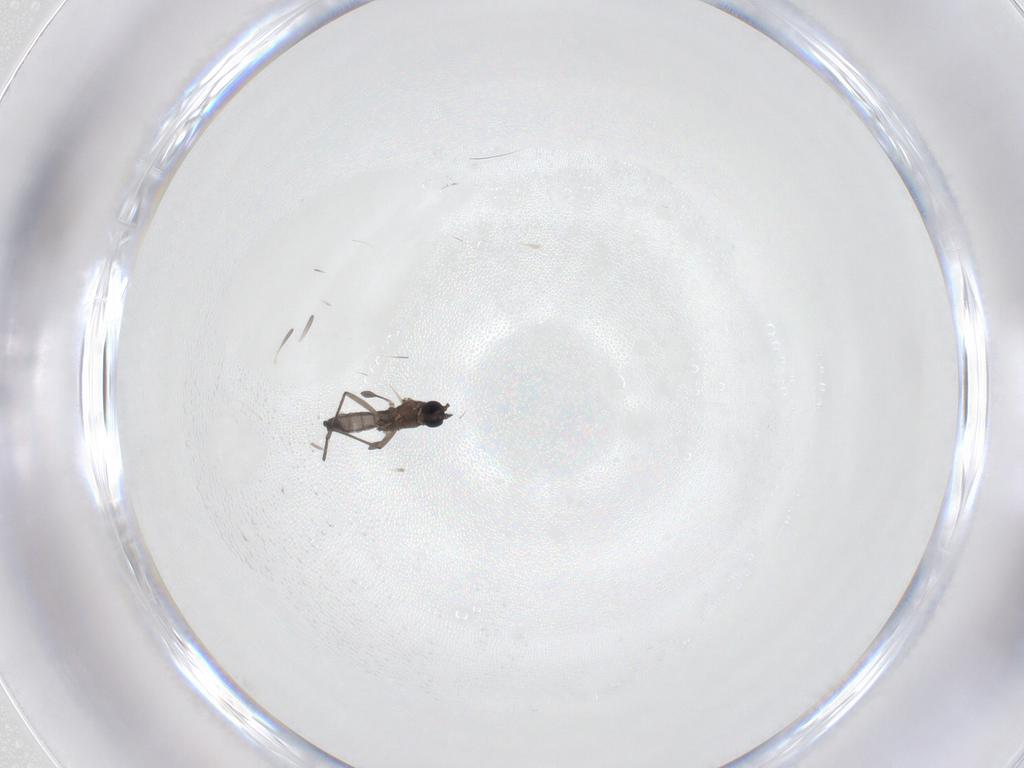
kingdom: Animalia
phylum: Arthropoda
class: Insecta
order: Diptera
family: Sciaridae
